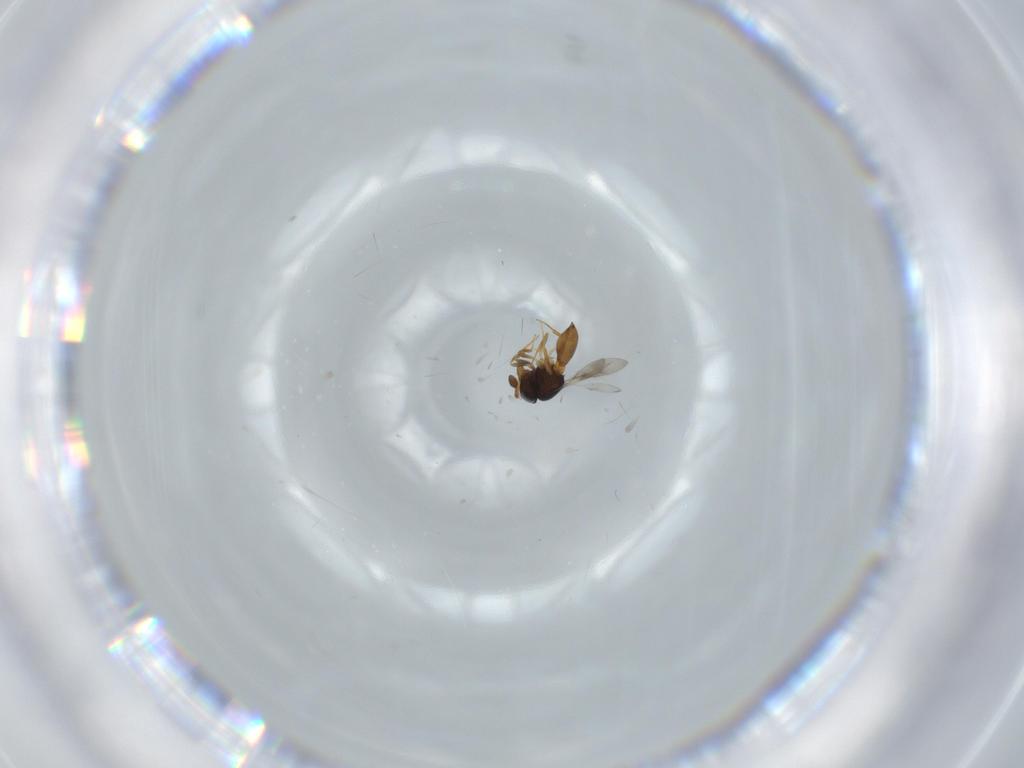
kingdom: Animalia
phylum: Arthropoda
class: Insecta
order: Hymenoptera
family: Scelionidae
